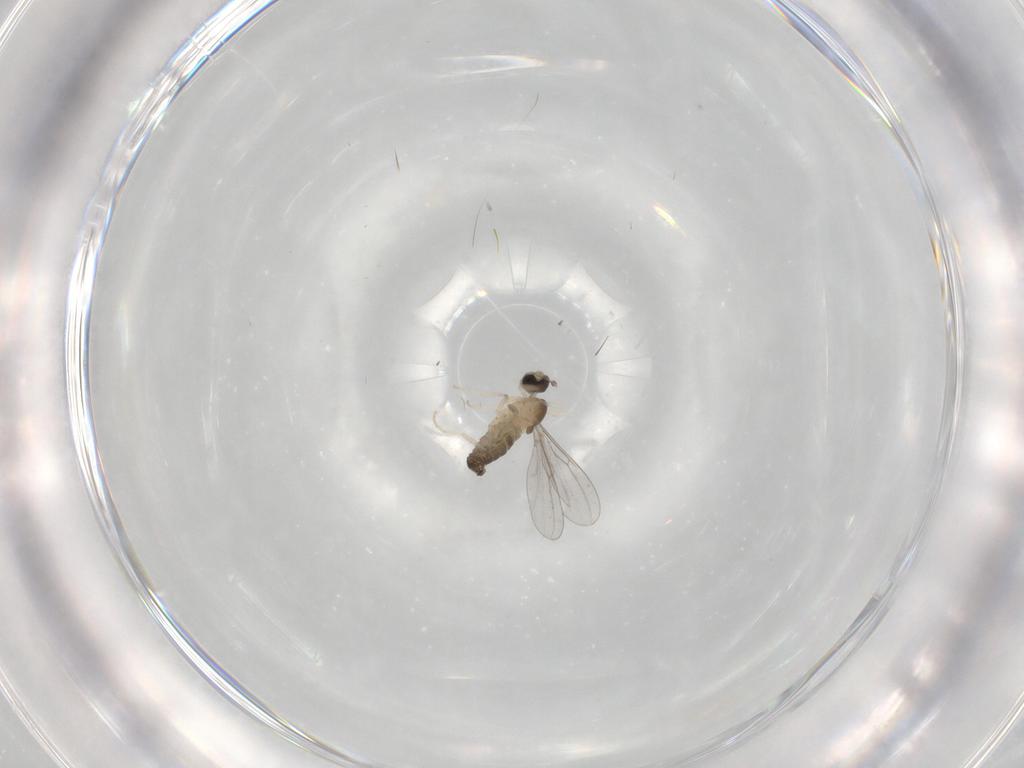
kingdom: Animalia
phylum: Arthropoda
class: Insecta
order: Diptera
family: Cecidomyiidae
